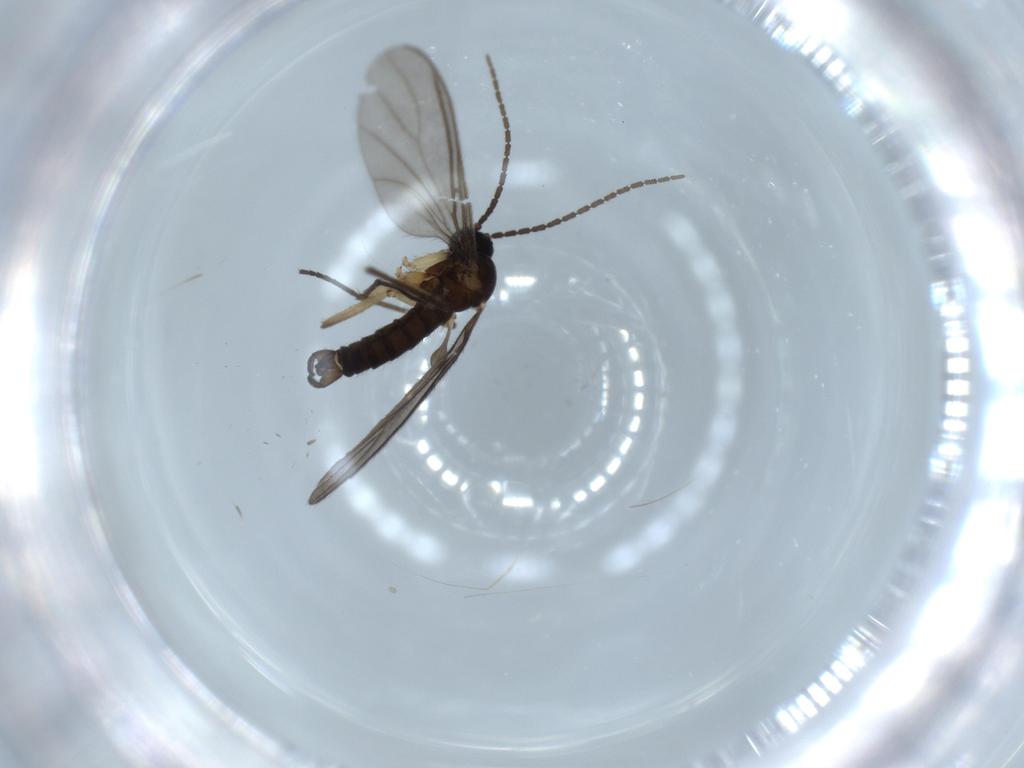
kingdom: Animalia
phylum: Arthropoda
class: Insecta
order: Diptera
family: Sciaridae
